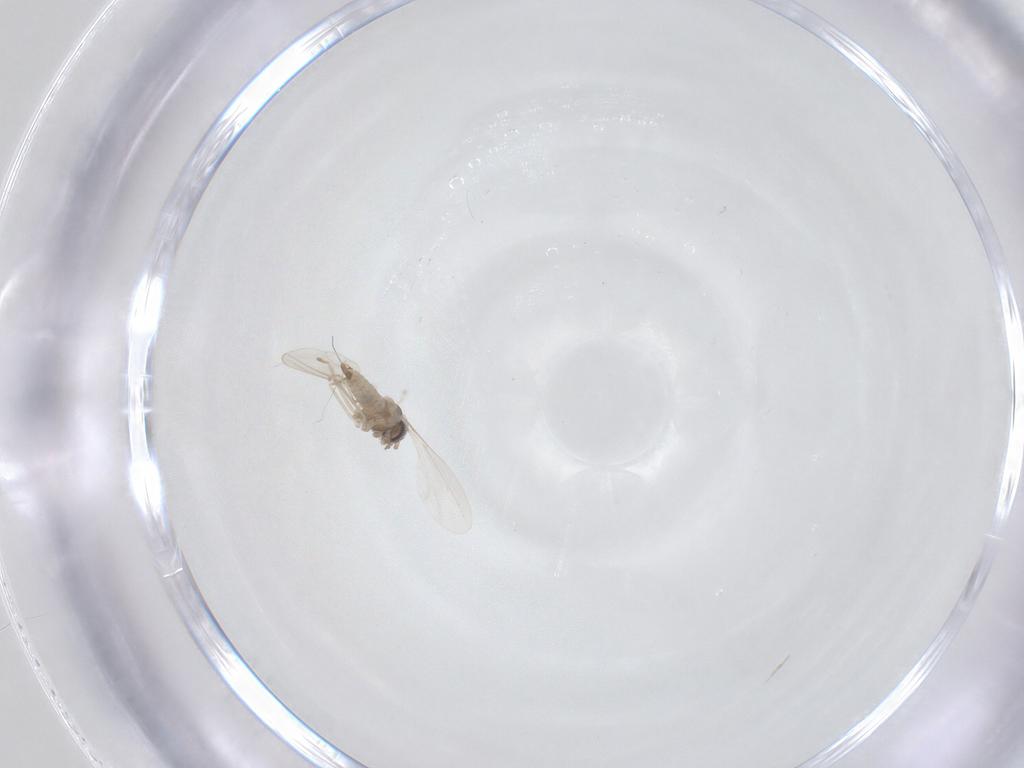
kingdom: Animalia
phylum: Arthropoda
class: Insecta
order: Diptera
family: Cecidomyiidae
